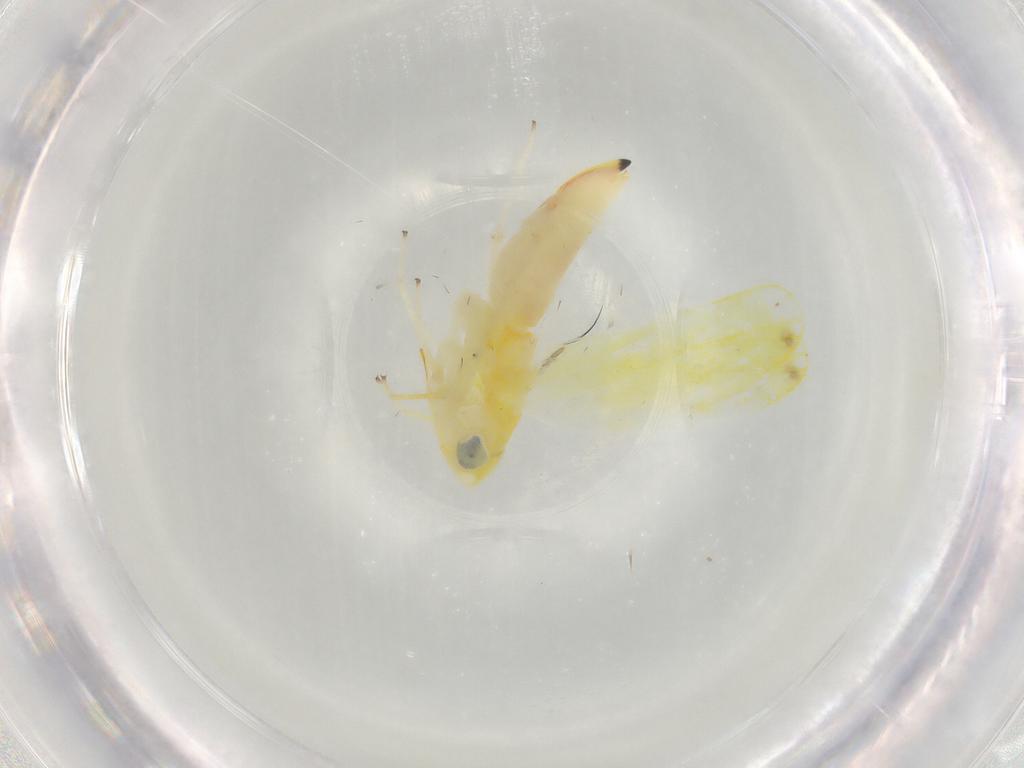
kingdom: Animalia
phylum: Arthropoda
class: Insecta
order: Hemiptera
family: Cicadellidae
